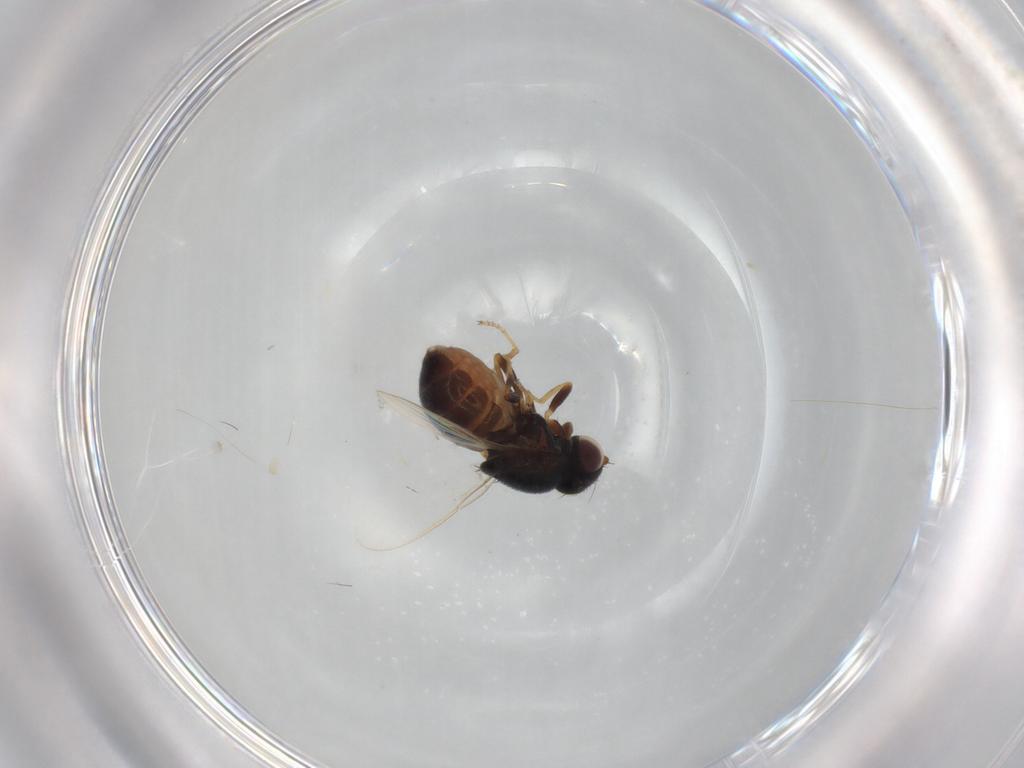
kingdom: Animalia
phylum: Arthropoda
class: Insecta
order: Diptera
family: Chloropidae
